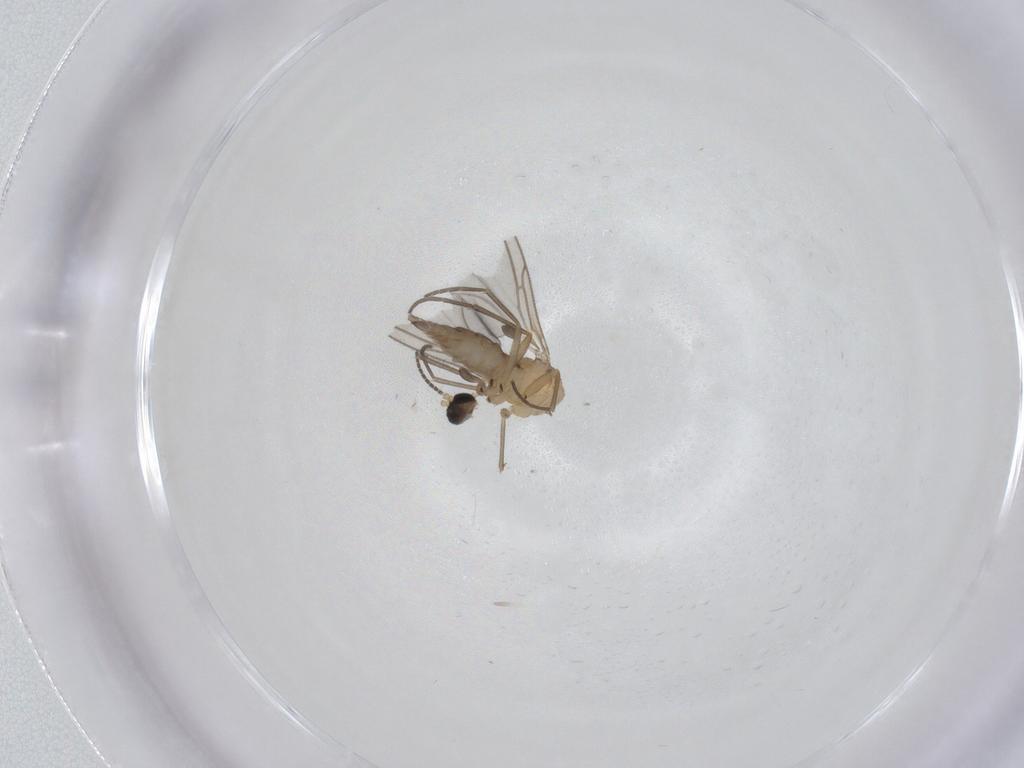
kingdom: Animalia
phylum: Arthropoda
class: Insecta
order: Diptera
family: Sciaridae
